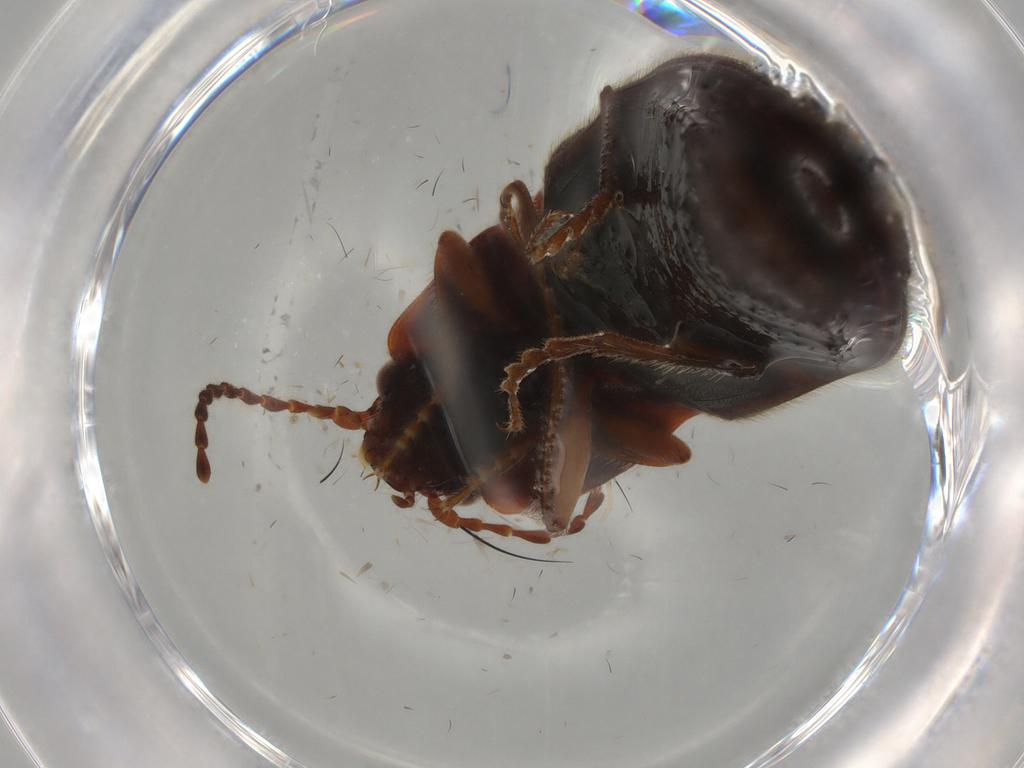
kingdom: Animalia
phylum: Arthropoda
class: Insecta
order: Coleoptera
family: Elateridae
